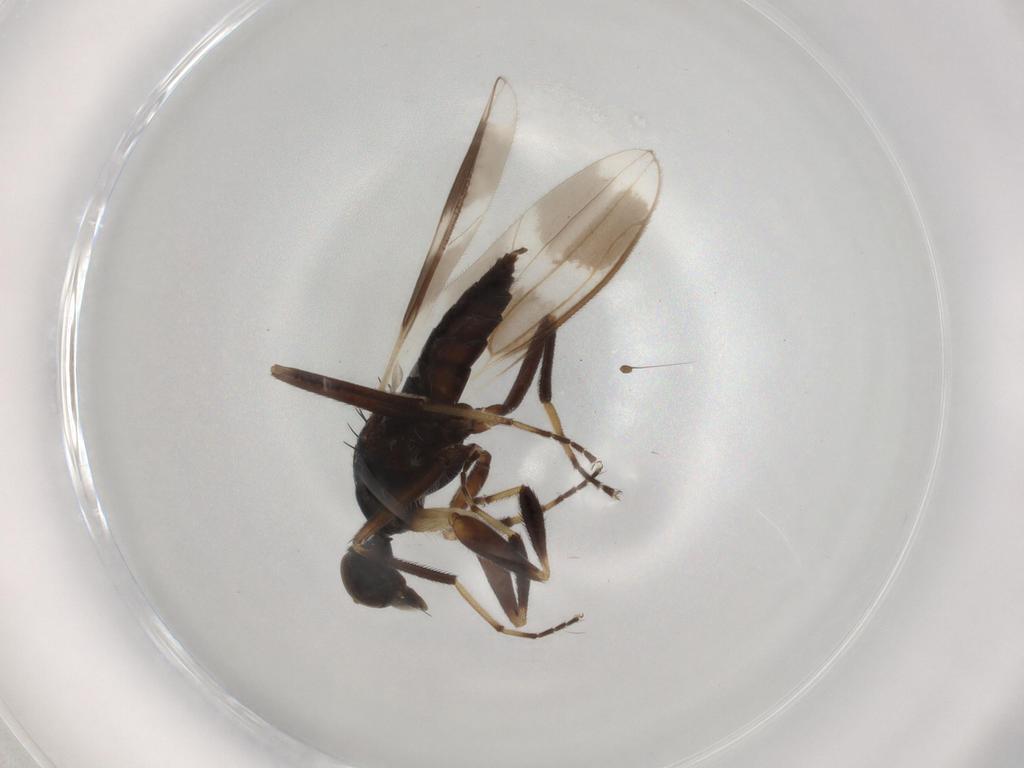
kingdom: Animalia
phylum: Arthropoda
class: Insecta
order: Diptera
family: Hybotidae
